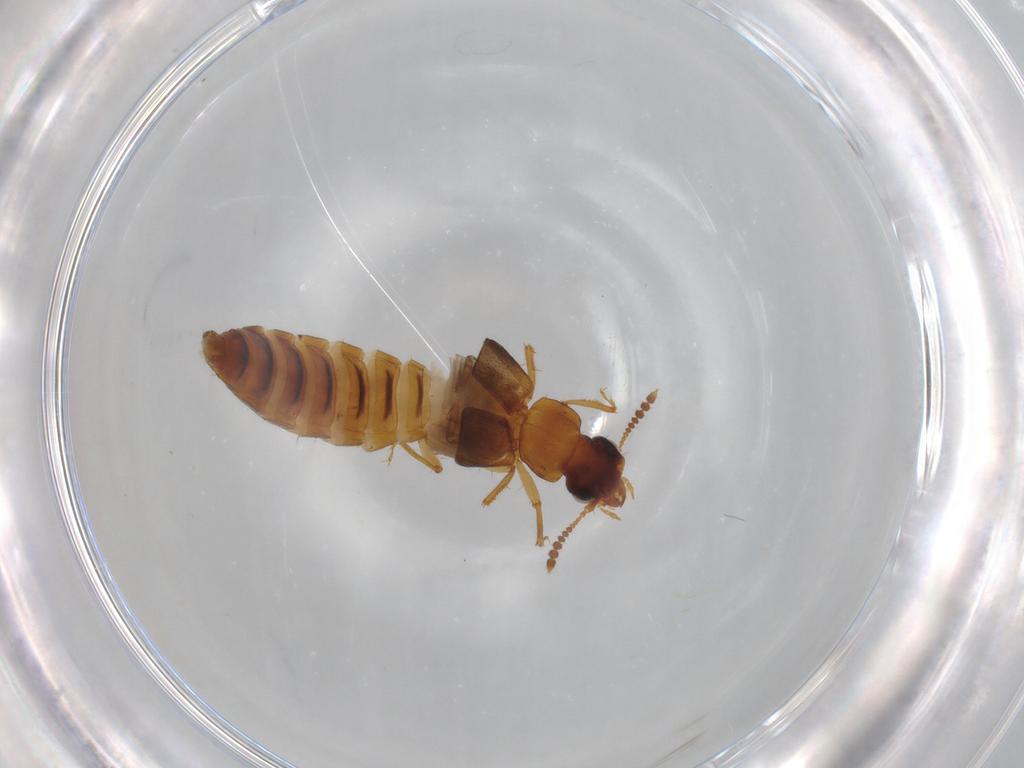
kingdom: Animalia
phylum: Arthropoda
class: Insecta
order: Coleoptera
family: Staphylinidae
